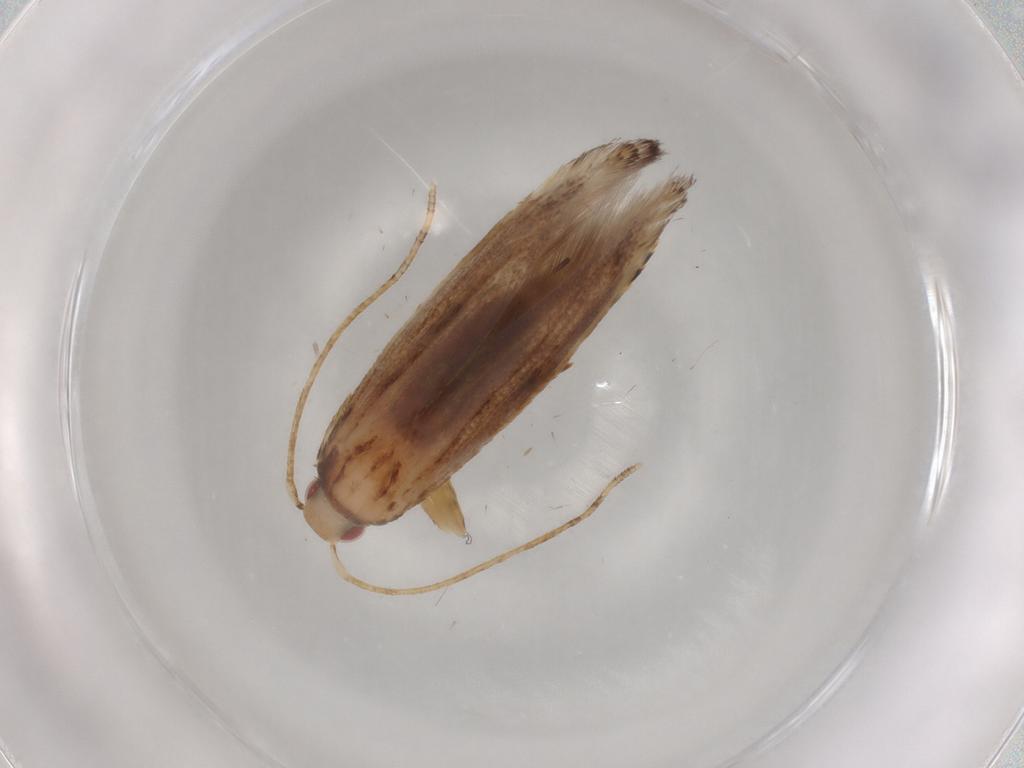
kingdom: Animalia
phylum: Arthropoda
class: Insecta
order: Lepidoptera
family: Cosmopterigidae
